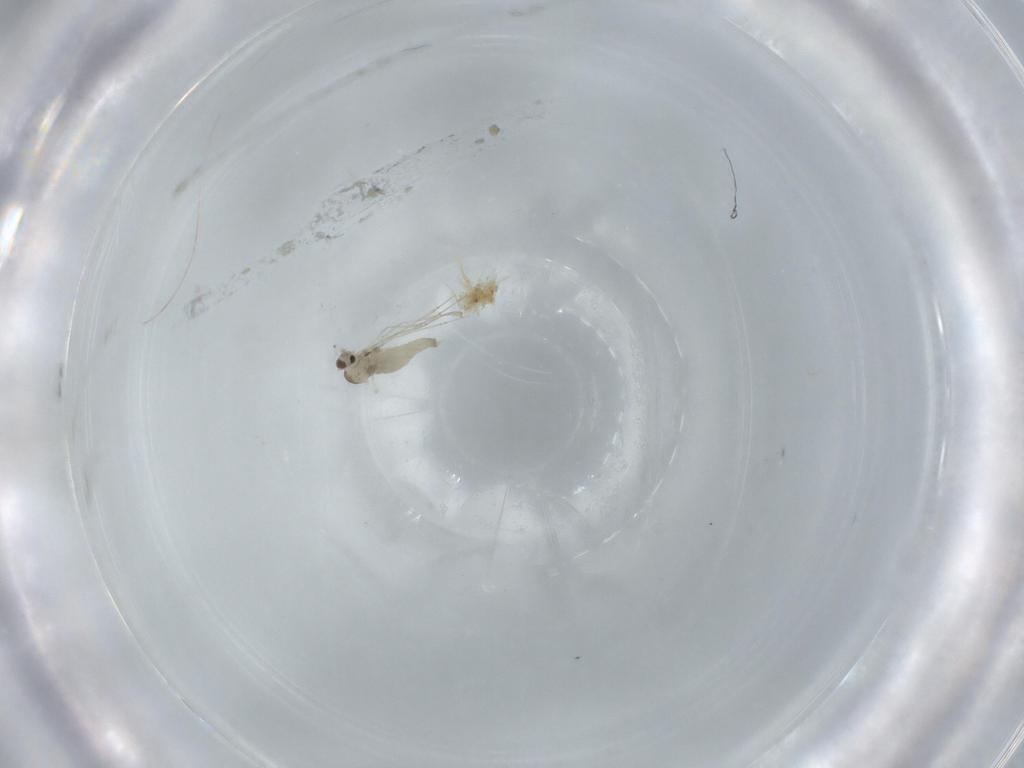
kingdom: Animalia
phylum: Arthropoda
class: Insecta
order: Diptera
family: Cecidomyiidae
